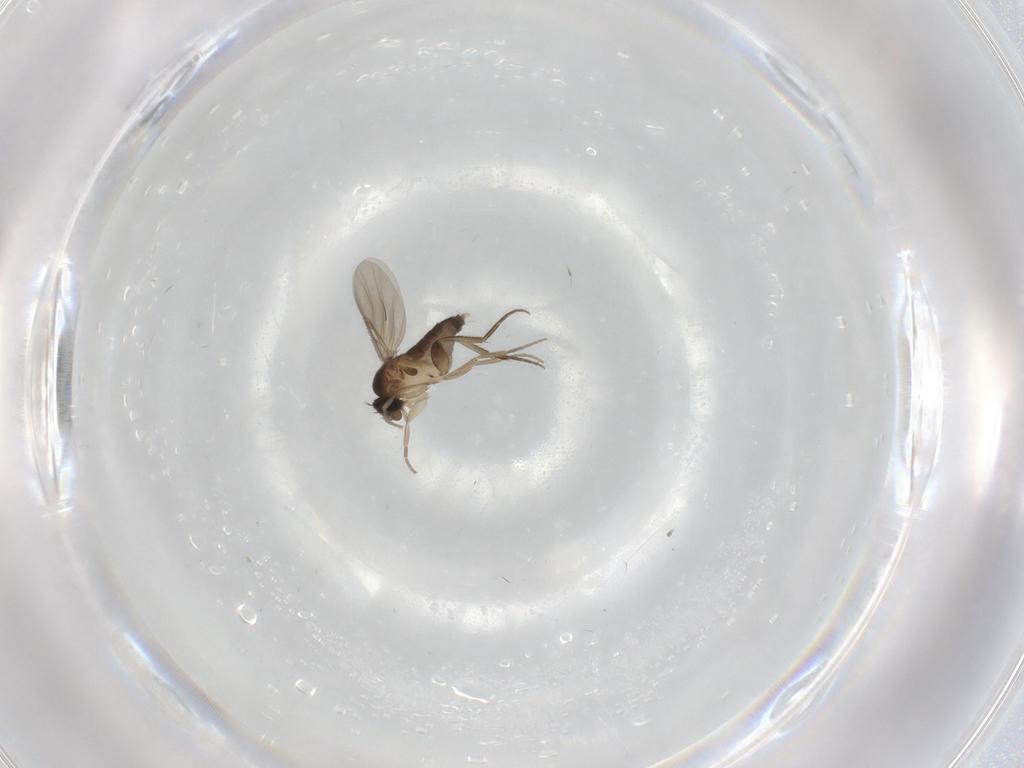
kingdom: Animalia
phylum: Arthropoda
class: Insecta
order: Diptera
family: Phoridae
